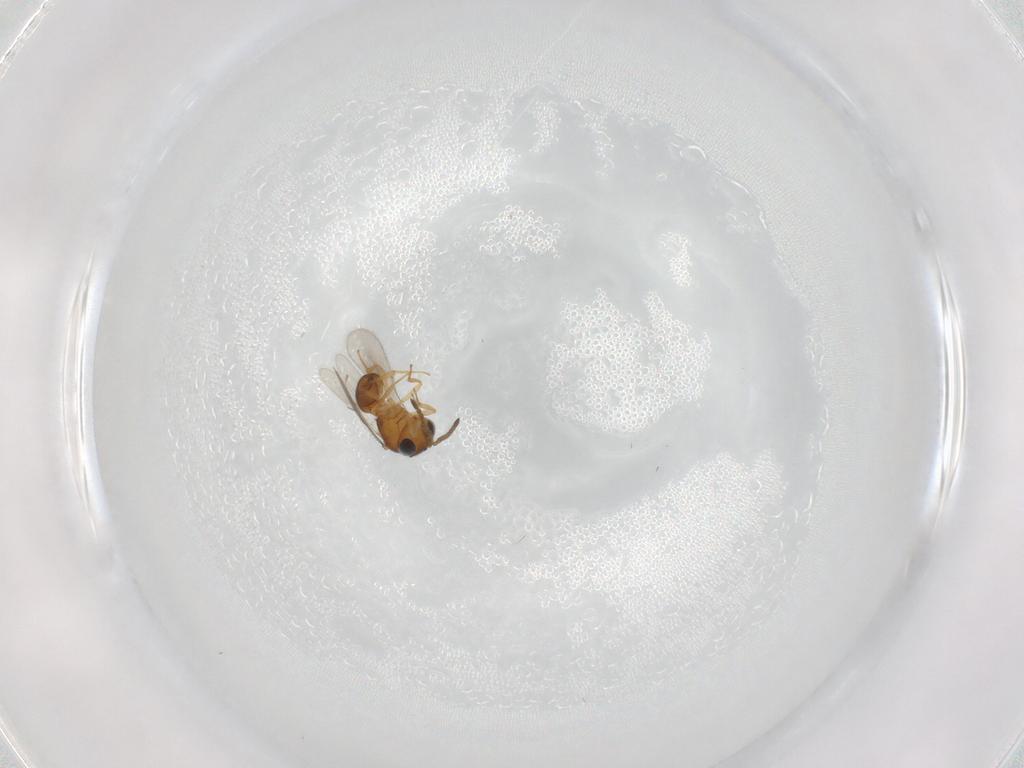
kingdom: Animalia
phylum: Arthropoda
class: Insecta
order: Hymenoptera
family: Scelionidae
